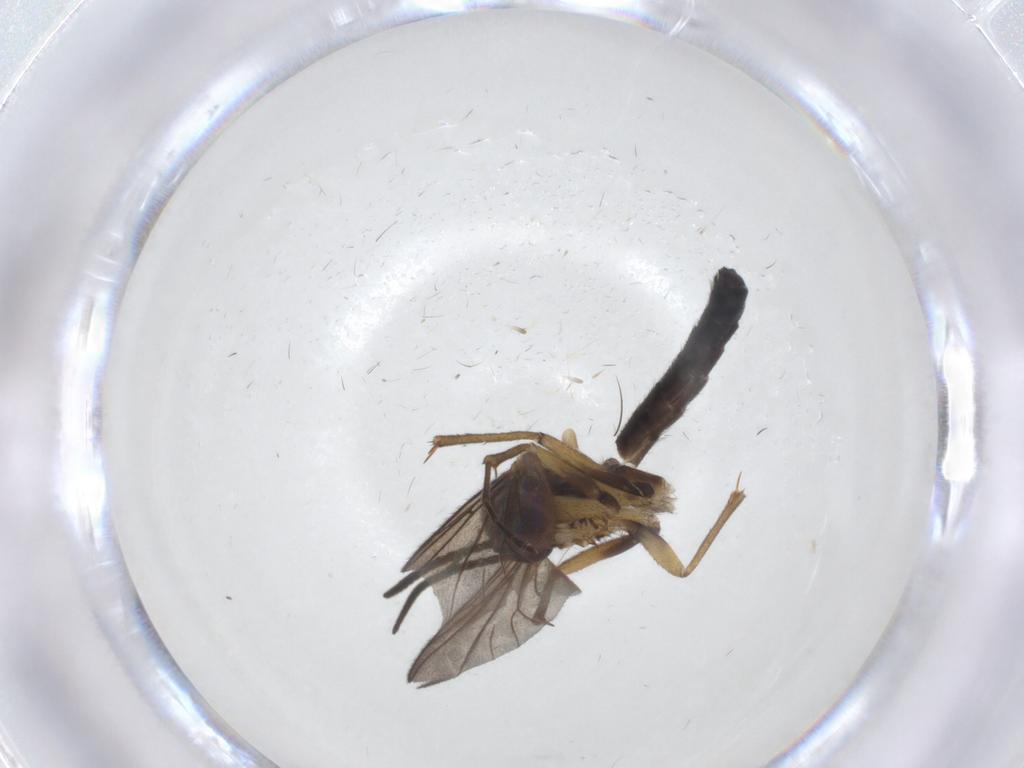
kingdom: Animalia
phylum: Arthropoda
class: Insecta
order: Diptera
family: Mycetophilidae
